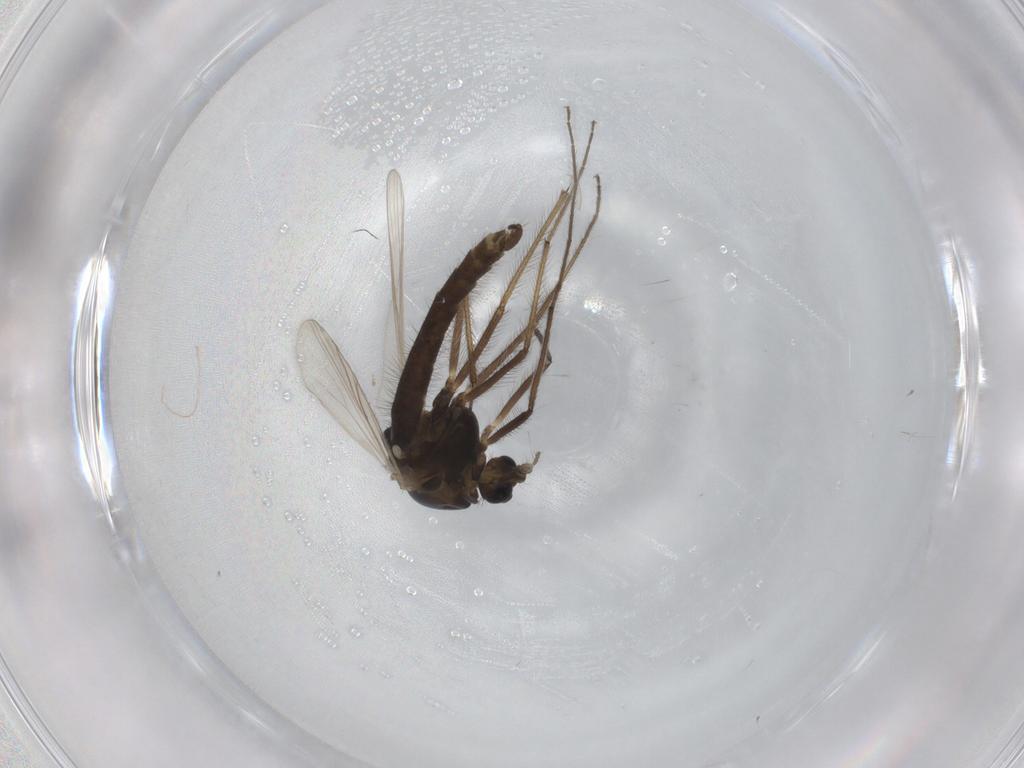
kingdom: Animalia
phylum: Arthropoda
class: Insecta
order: Diptera
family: Chironomidae
